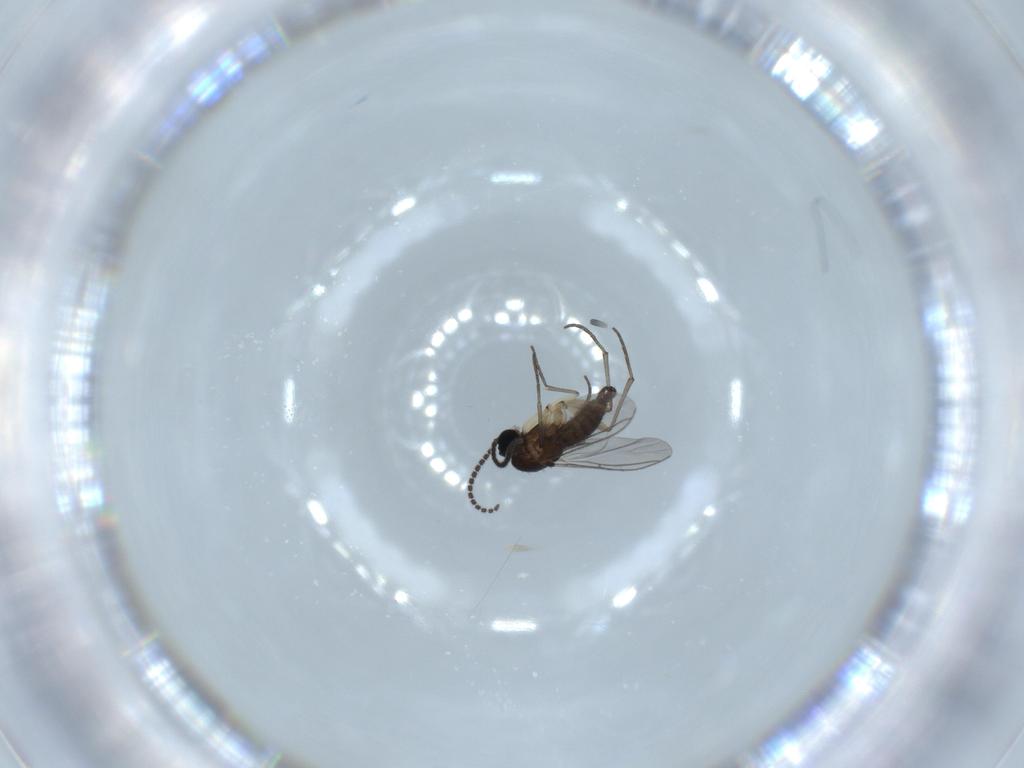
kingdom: Animalia
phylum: Arthropoda
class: Insecta
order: Diptera
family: Sciaridae
